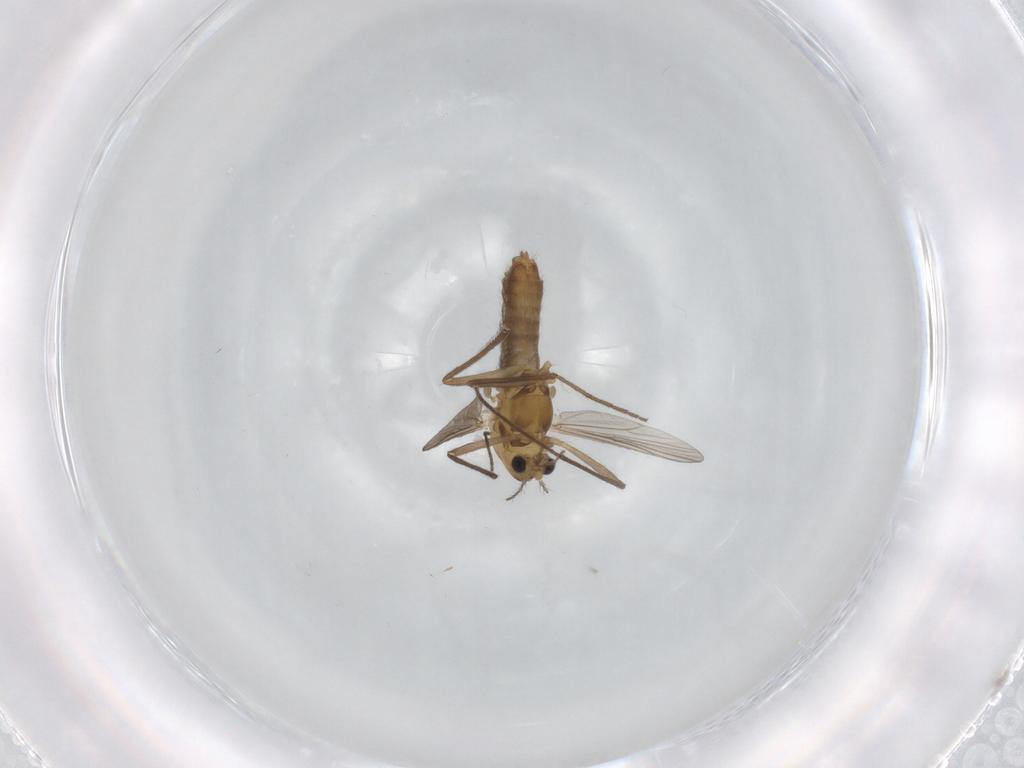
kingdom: Animalia
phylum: Arthropoda
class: Insecta
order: Diptera
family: Chironomidae
